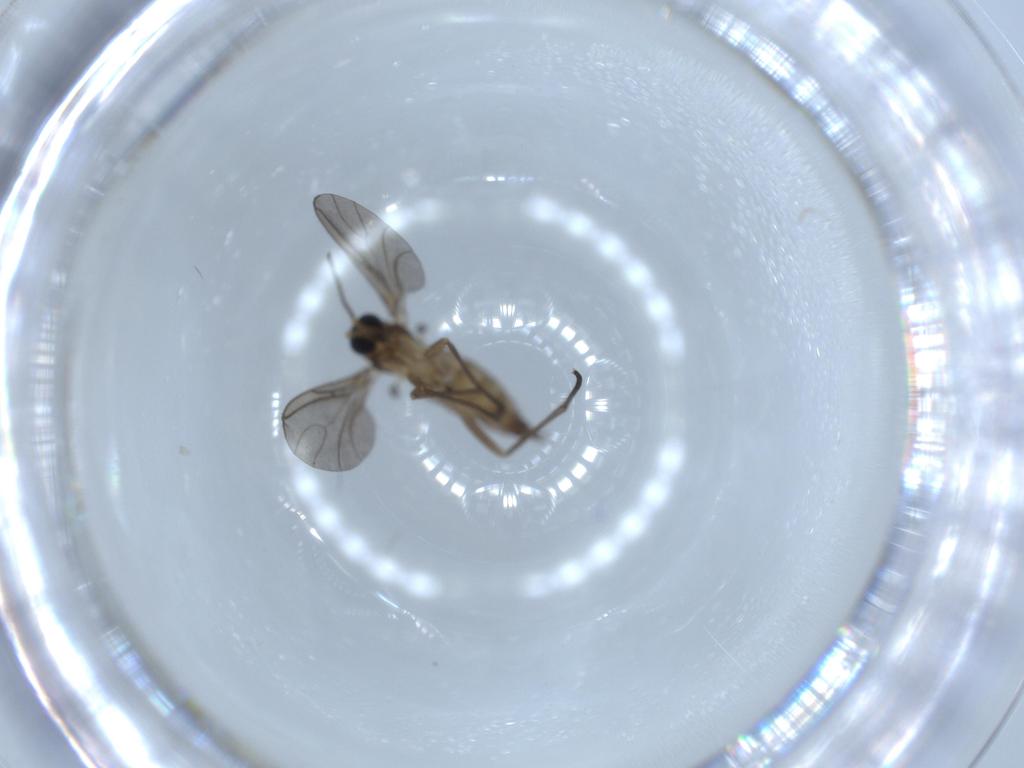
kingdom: Animalia
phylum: Arthropoda
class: Insecta
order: Diptera
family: Sciaridae
